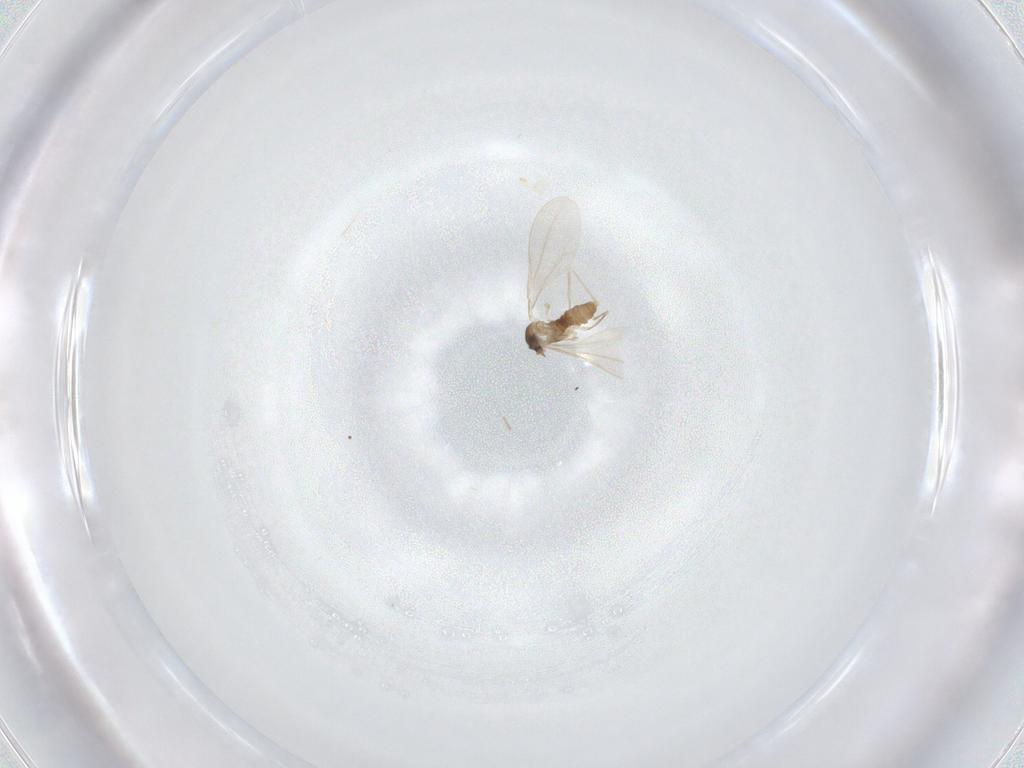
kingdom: Animalia
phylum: Arthropoda
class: Insecta
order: Diptera
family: Cecidomyiidae
